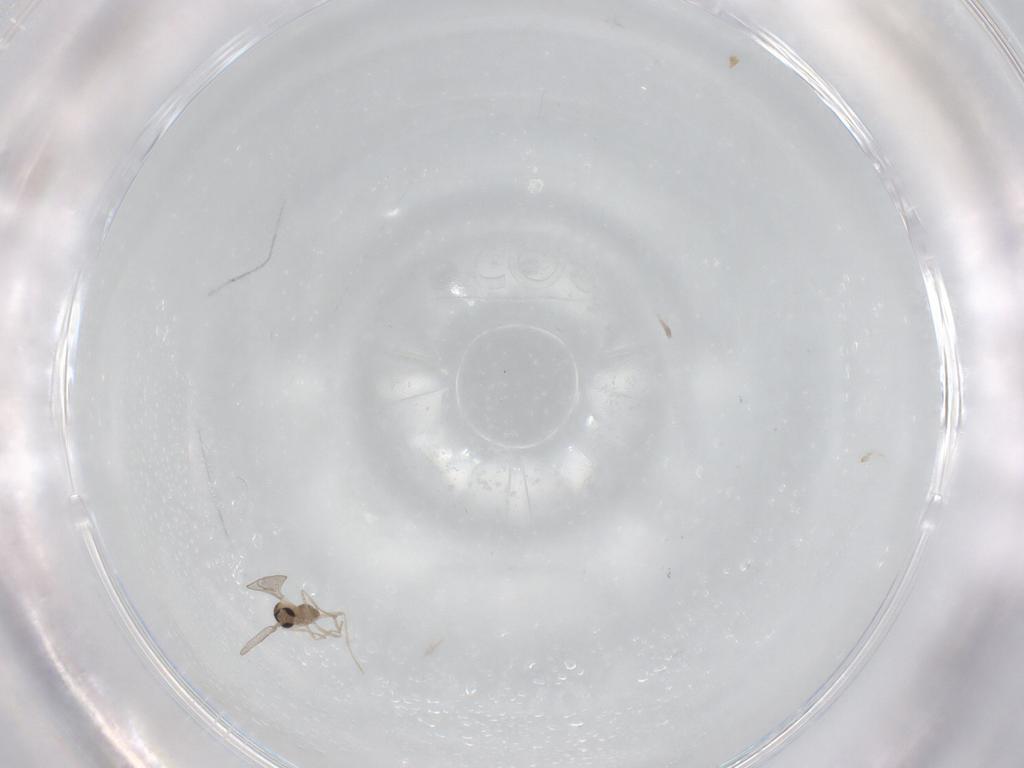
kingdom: Animalia
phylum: Arthropoda
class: Insecta
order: Diptera
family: Cecidomyiidae
